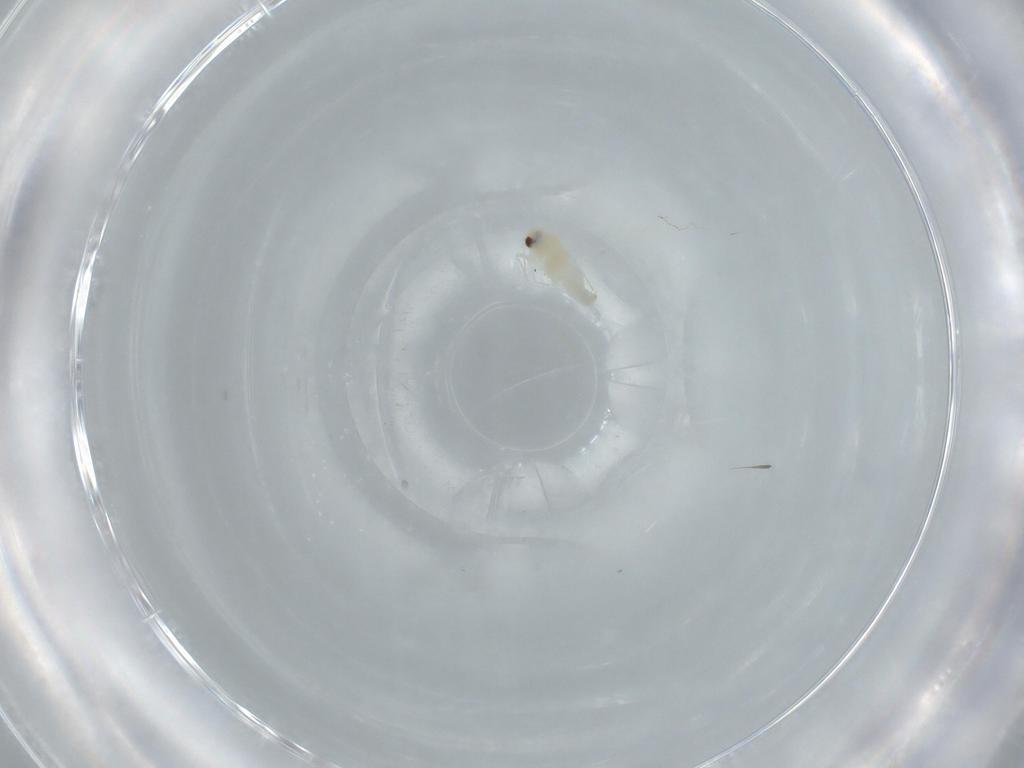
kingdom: Animalia
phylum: Arthropoda
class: Insecta
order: Hemiptera
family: Aleyrodidae
